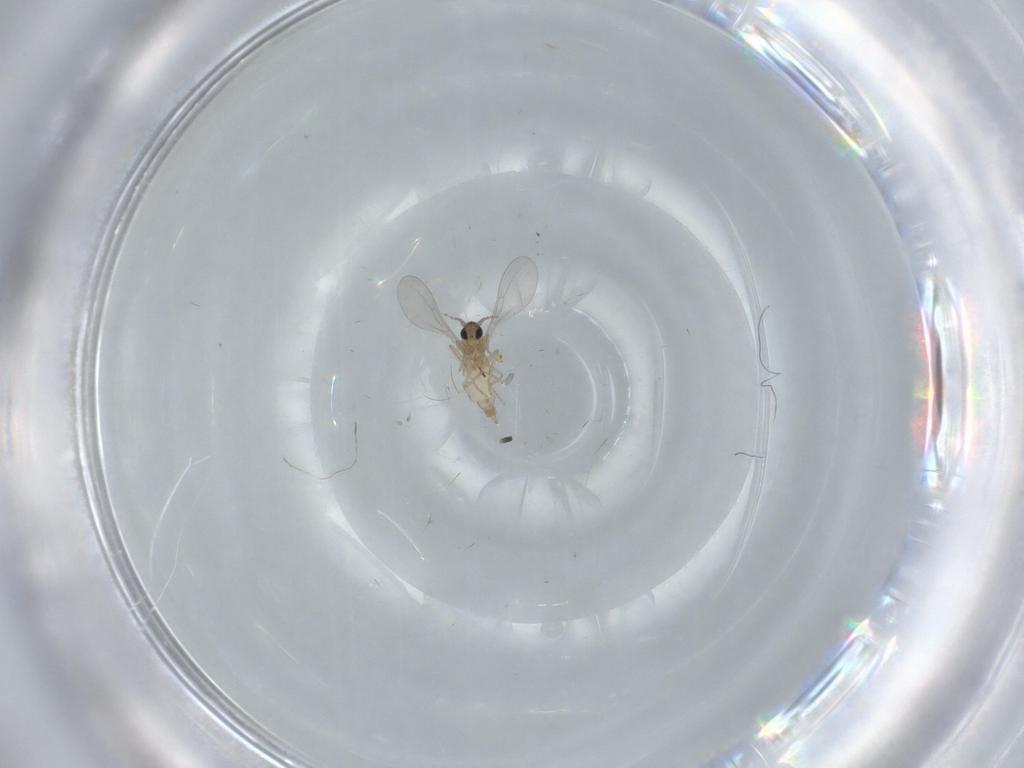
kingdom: Animalia
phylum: Arthropoda
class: Insecta
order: Diptera
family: Cecidomyiidae
